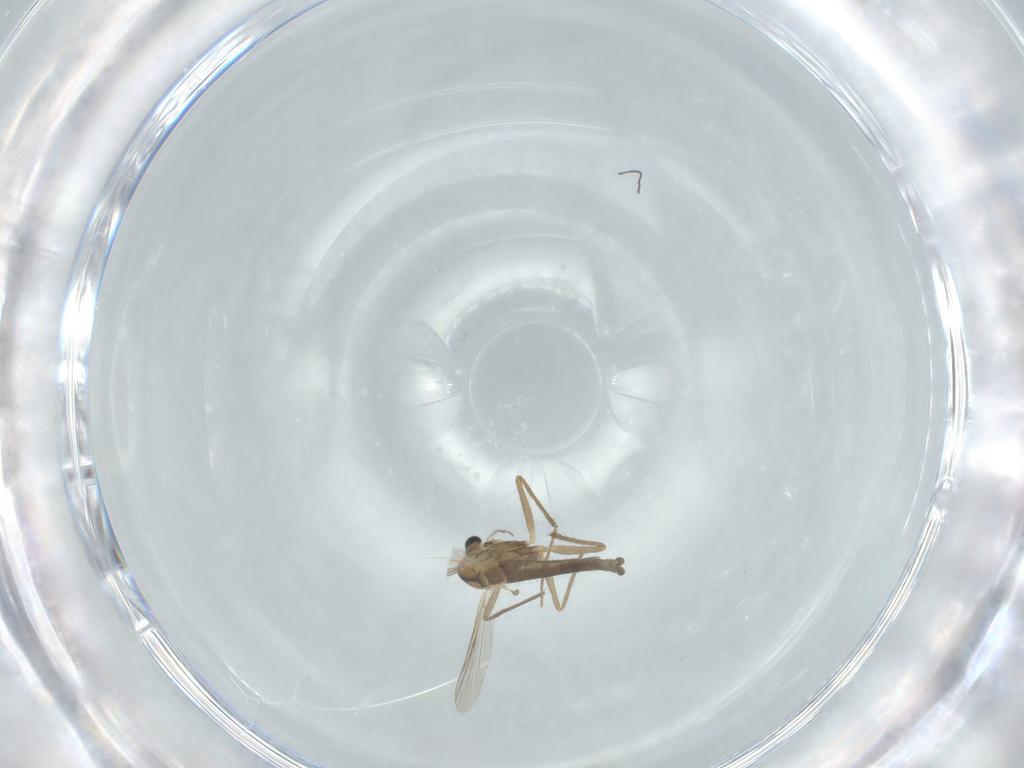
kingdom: Animalia
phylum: Arthropoda
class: Insecta
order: Diptera
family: Chironomidae
